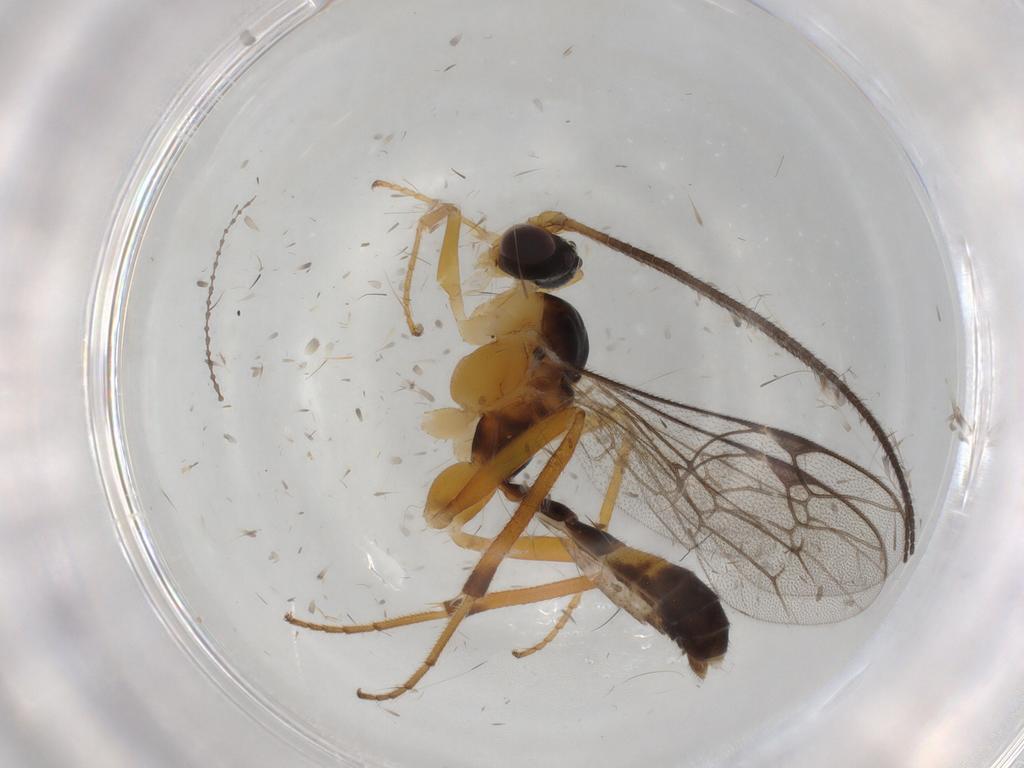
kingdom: Animalia
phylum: Arthropoda
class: Insecta
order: Hymenoptera
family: Ichneumonidae
